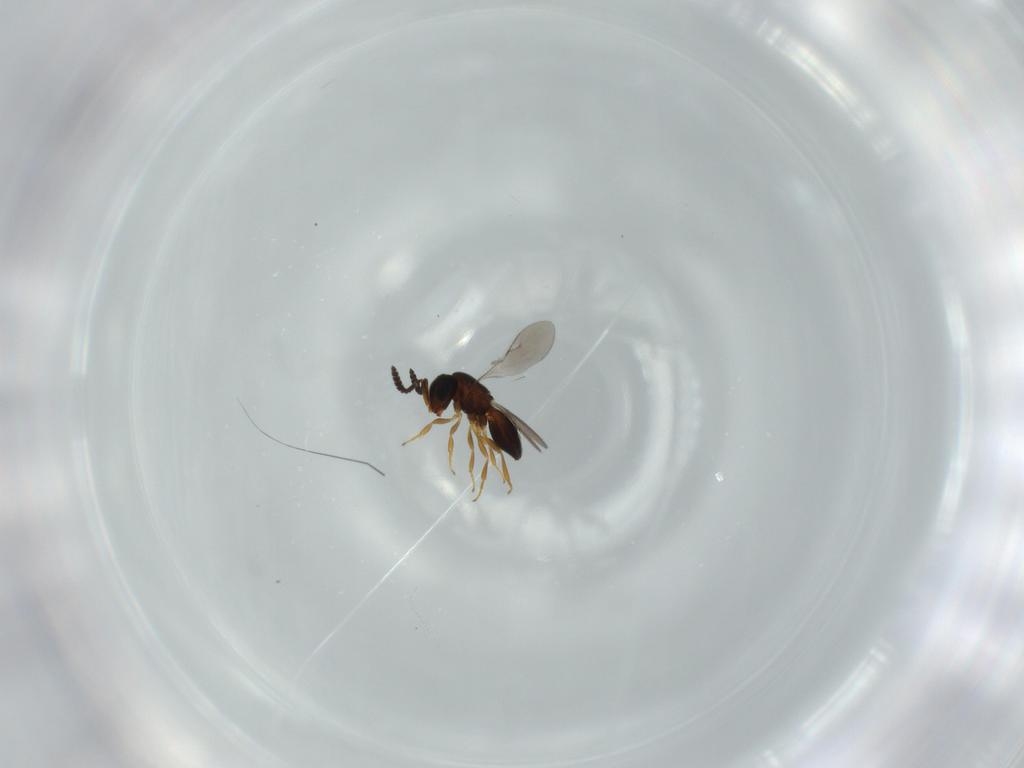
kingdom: Animalia
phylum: Arthropoda
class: Insecta
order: Hymenoptera
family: Scelionidae
